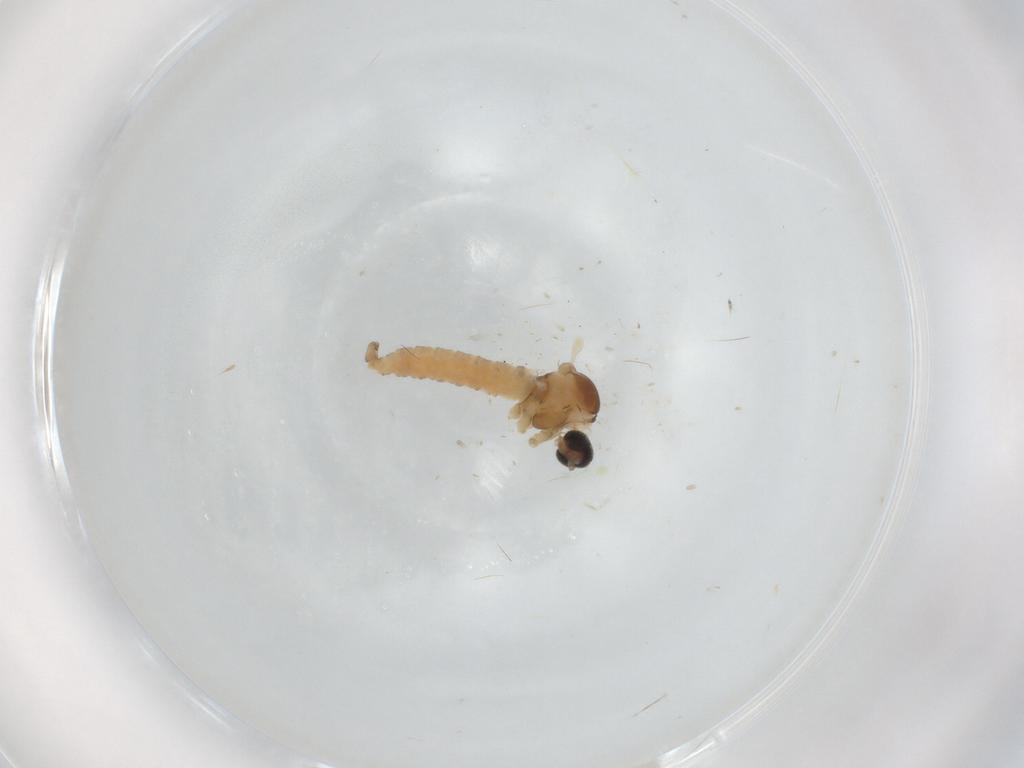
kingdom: Animalia
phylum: Arthropoda
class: Insecta
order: Diptera
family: Cecidomyiidae
